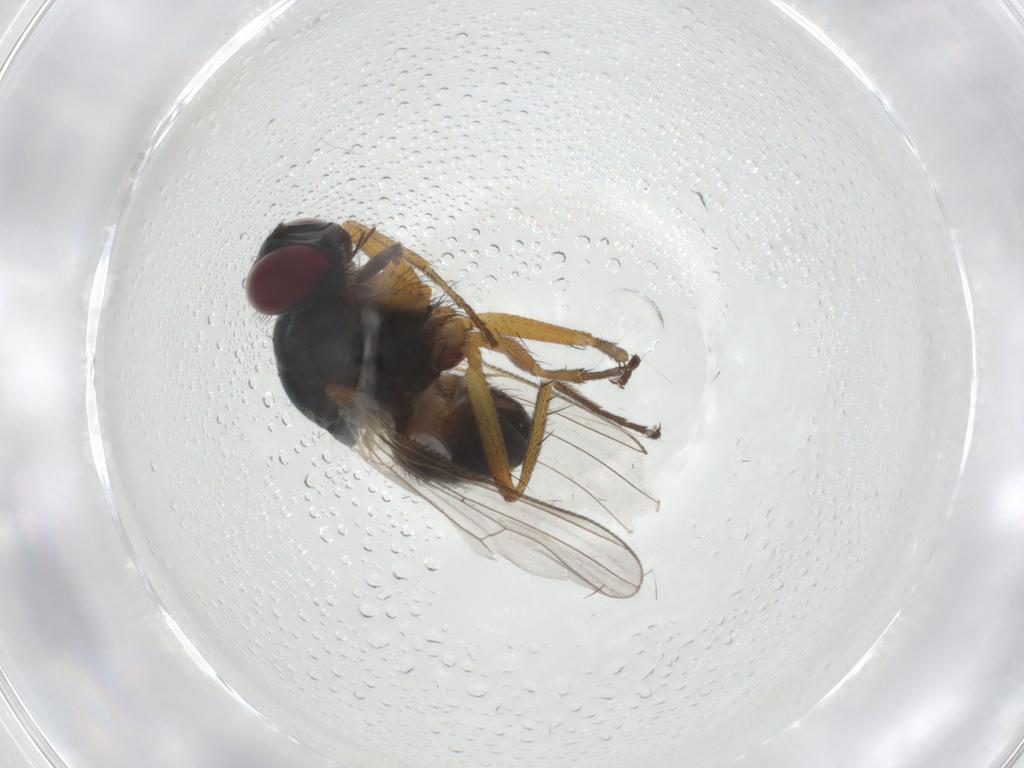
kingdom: Animalia
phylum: Arthropoda
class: Insecta
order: Diptera
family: Muscidae
